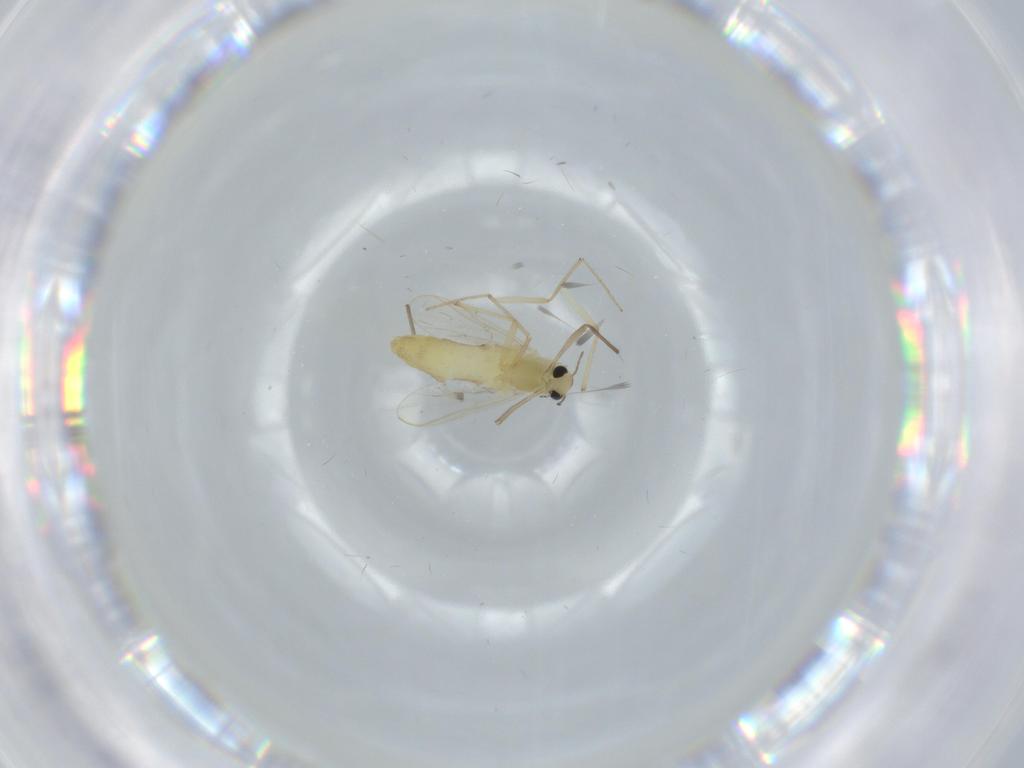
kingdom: Animalia
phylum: Arthropoda
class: Insecta
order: Diptera
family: Chironomidae
